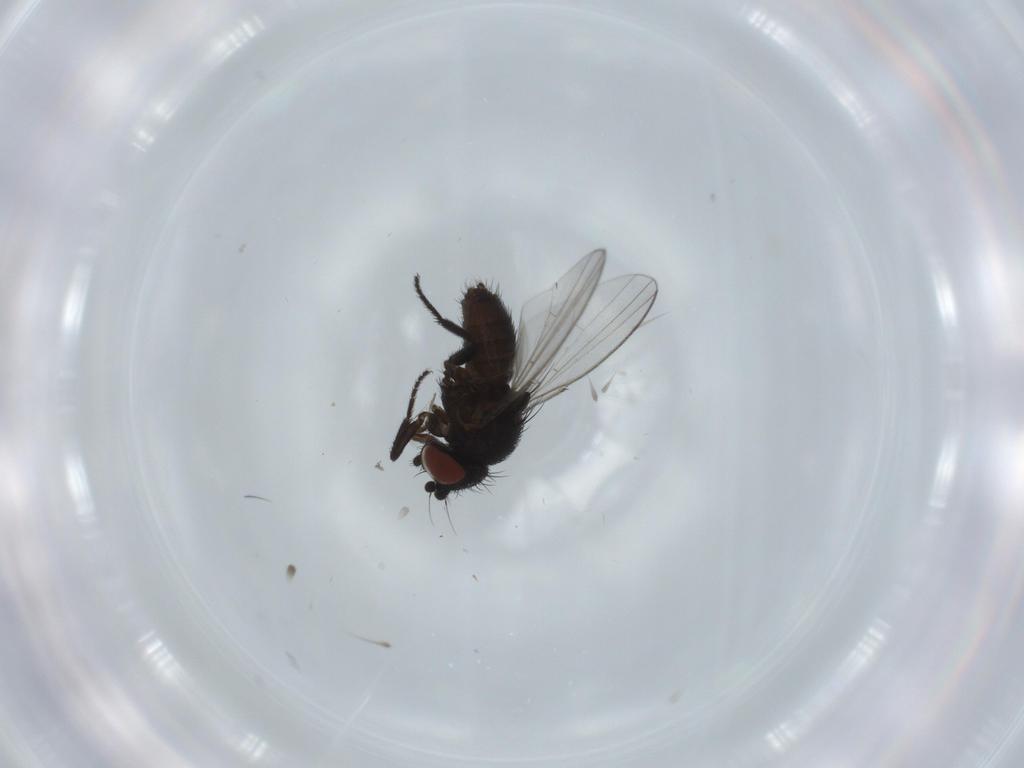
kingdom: Animalia
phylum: Arthropoda
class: Insecta
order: Diptera
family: Milichiidae
